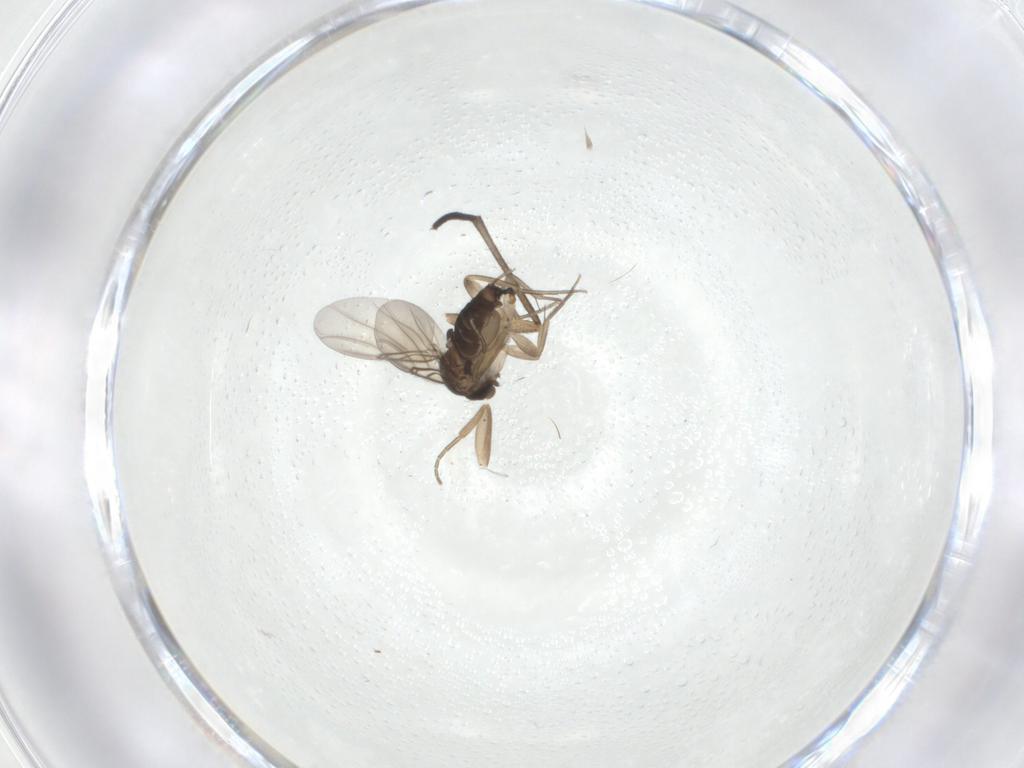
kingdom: Animalia
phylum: Arthropoda
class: Insecta
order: Diptera
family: Sciaridae
